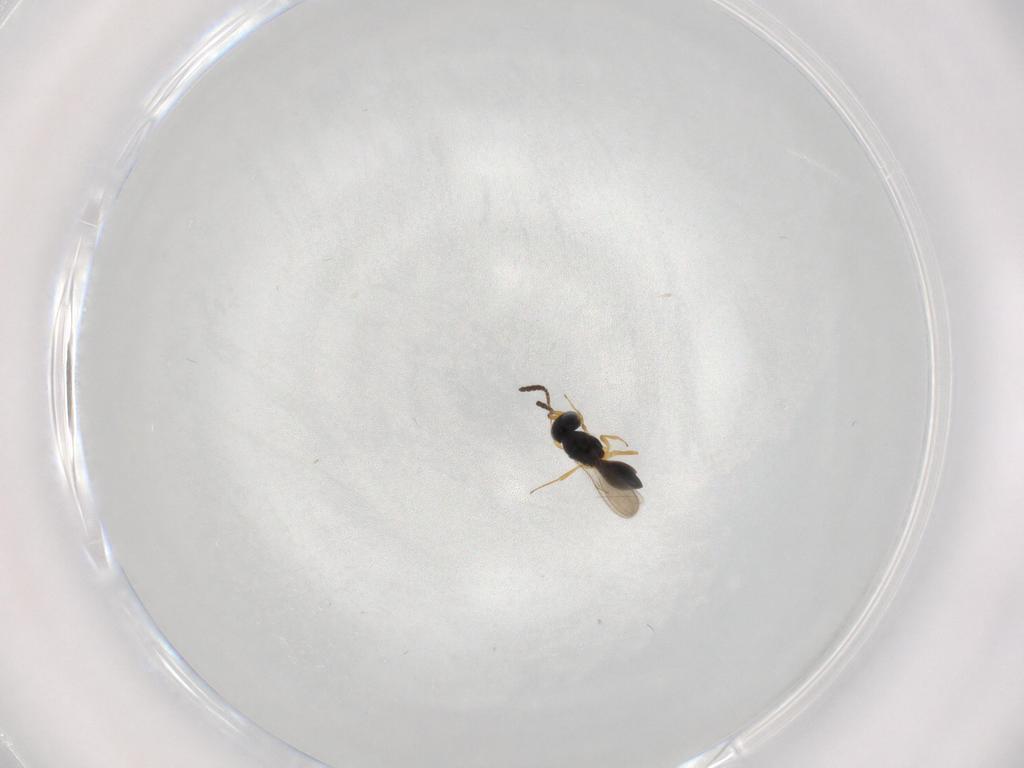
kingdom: Animalia
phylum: Arthropoda
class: Insecta
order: Hymenoptera
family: Scelionidae
